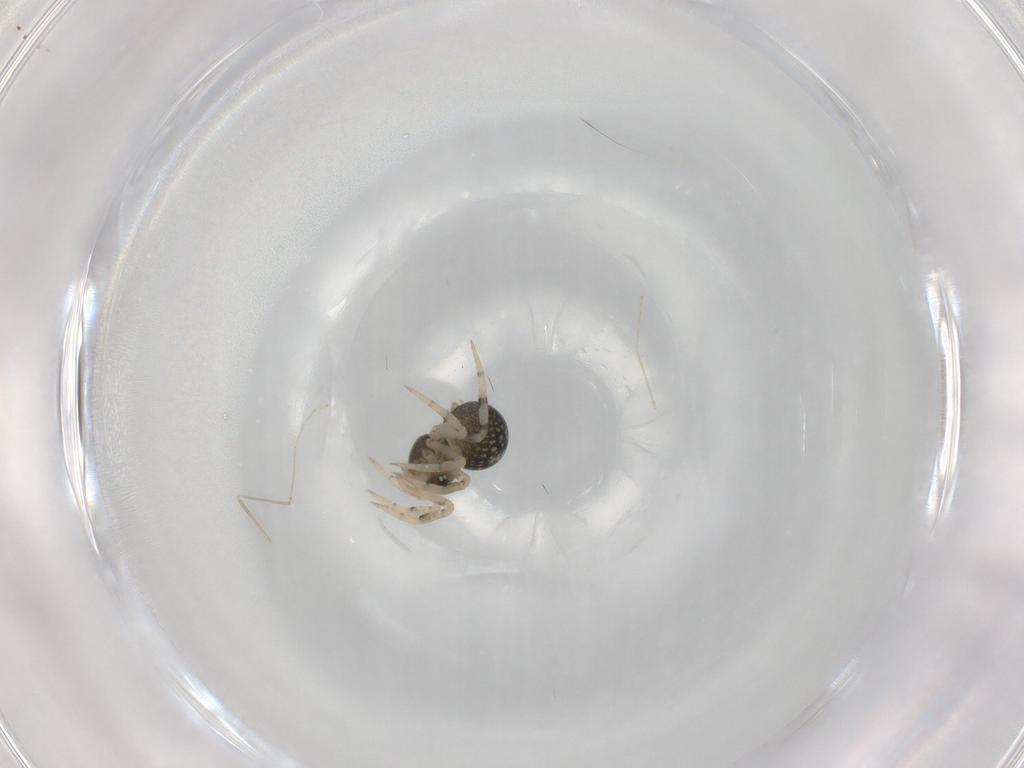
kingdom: Animalia
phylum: Arthropoda
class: Arachnida
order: Araneae
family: Theridiidae
